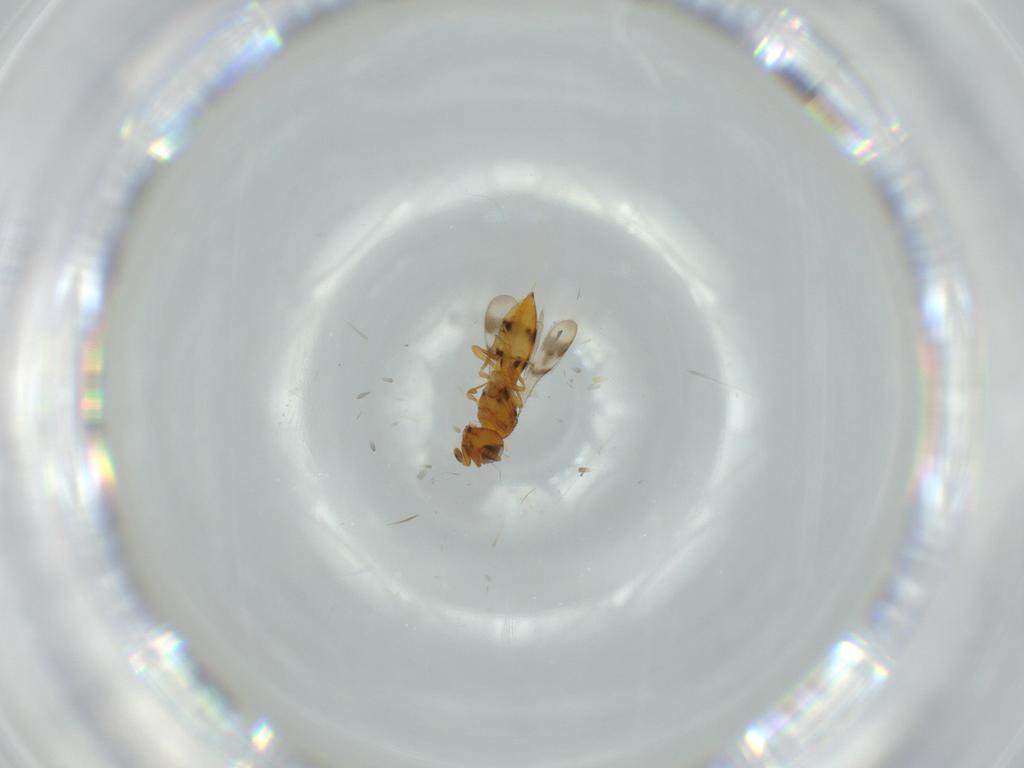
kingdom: Animalia
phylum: Arthropoda
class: Insecta
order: Hymenoptera
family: Scelionidae
